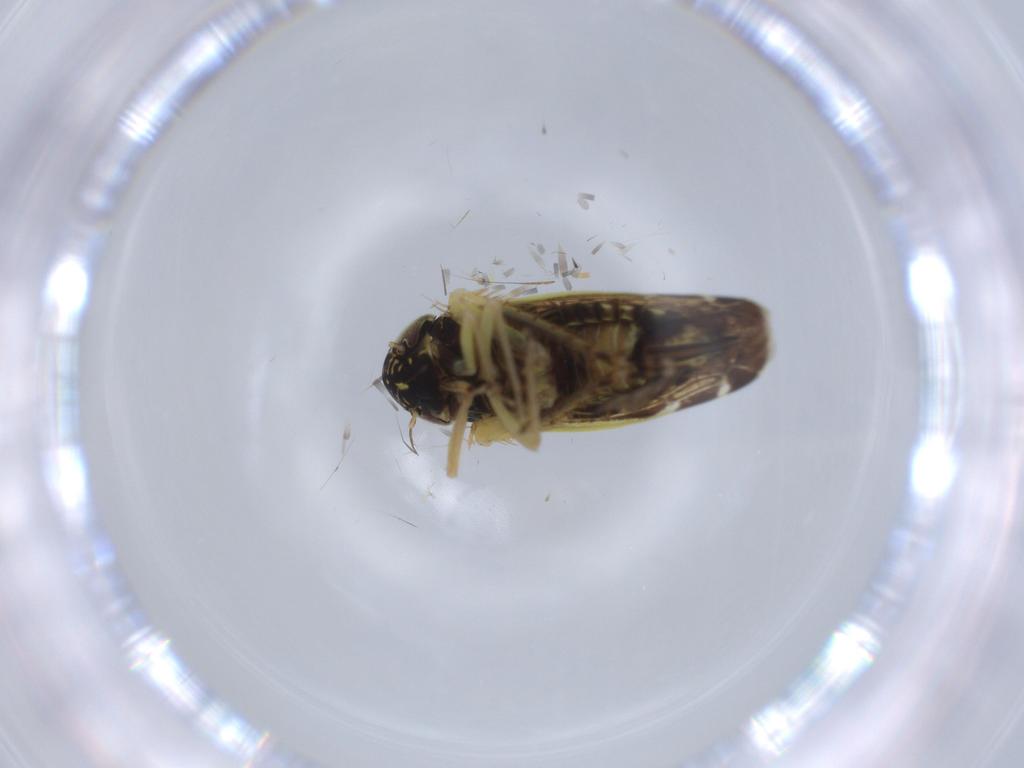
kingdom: Animalia
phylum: Arthropoda
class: Insecta
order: Hemiptera
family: Cicadellidae
